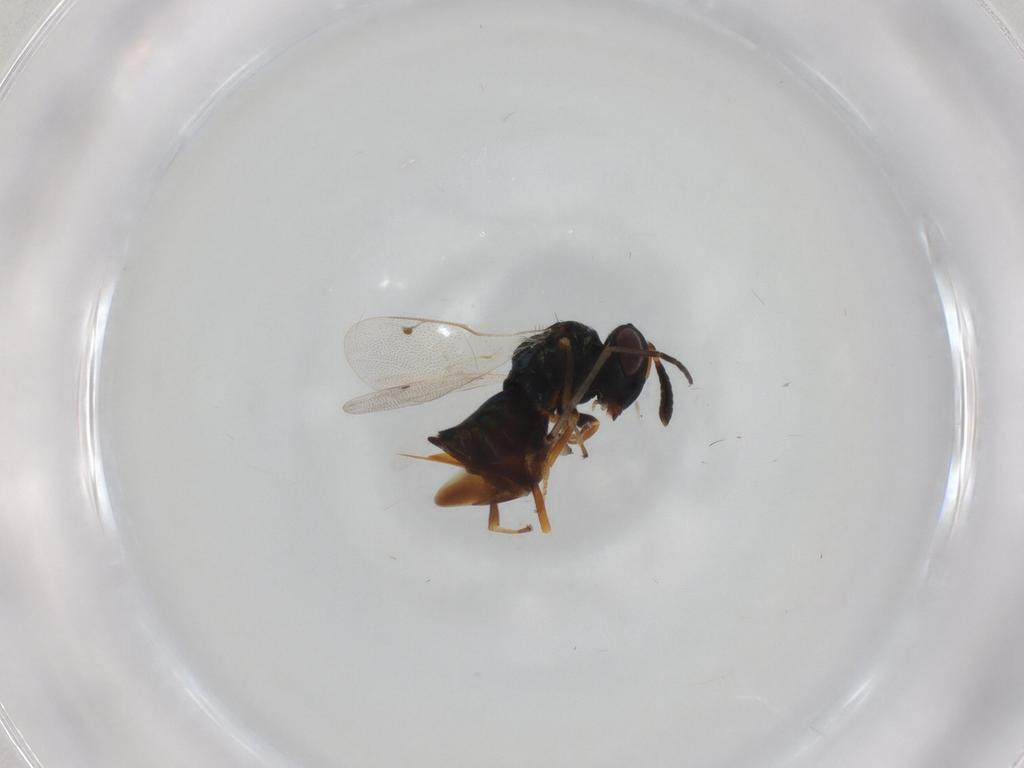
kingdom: Animalia
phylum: Arthropoda
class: Insecta
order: Hymenoptera
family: Pteromalidae
